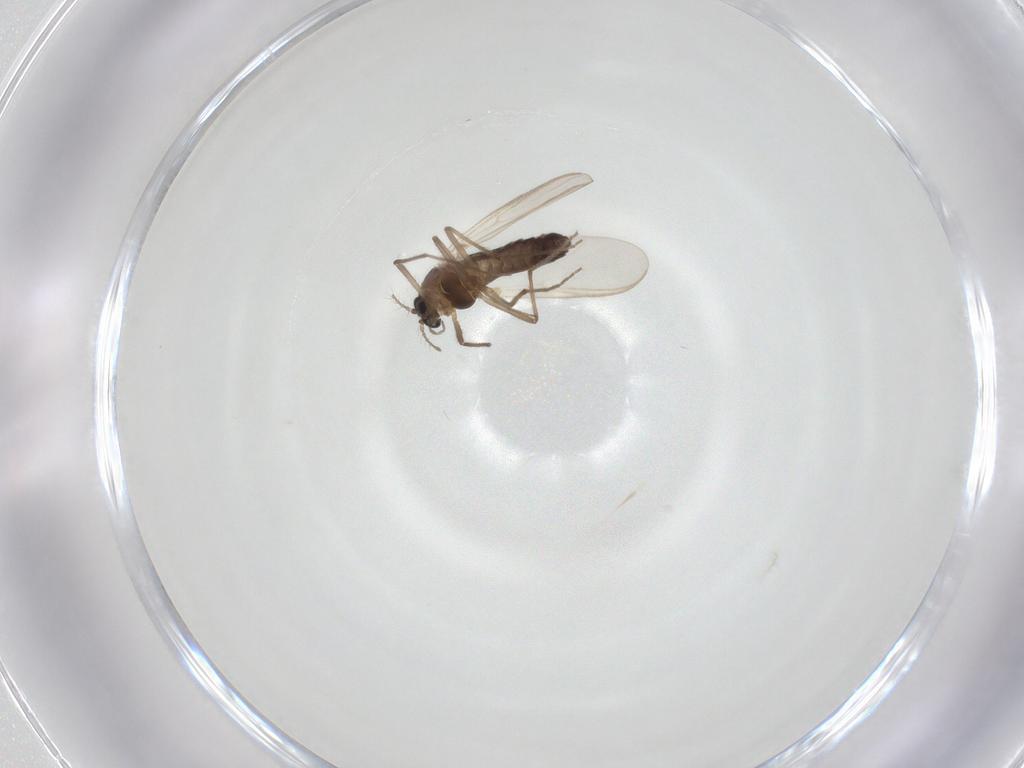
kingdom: Animalia
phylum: Arthropoda
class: Insecta
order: Diptera
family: Chironomidae
